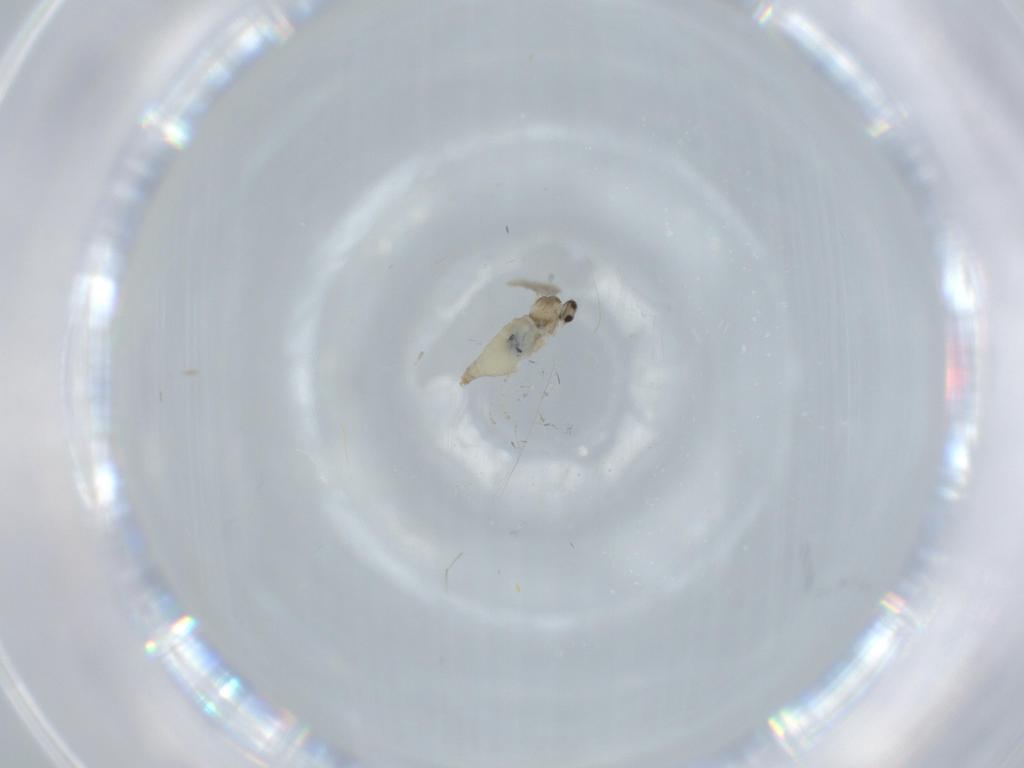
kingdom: Animalia
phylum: Arthropoda
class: Insecta
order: Diptera
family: Cecidomyiidae
